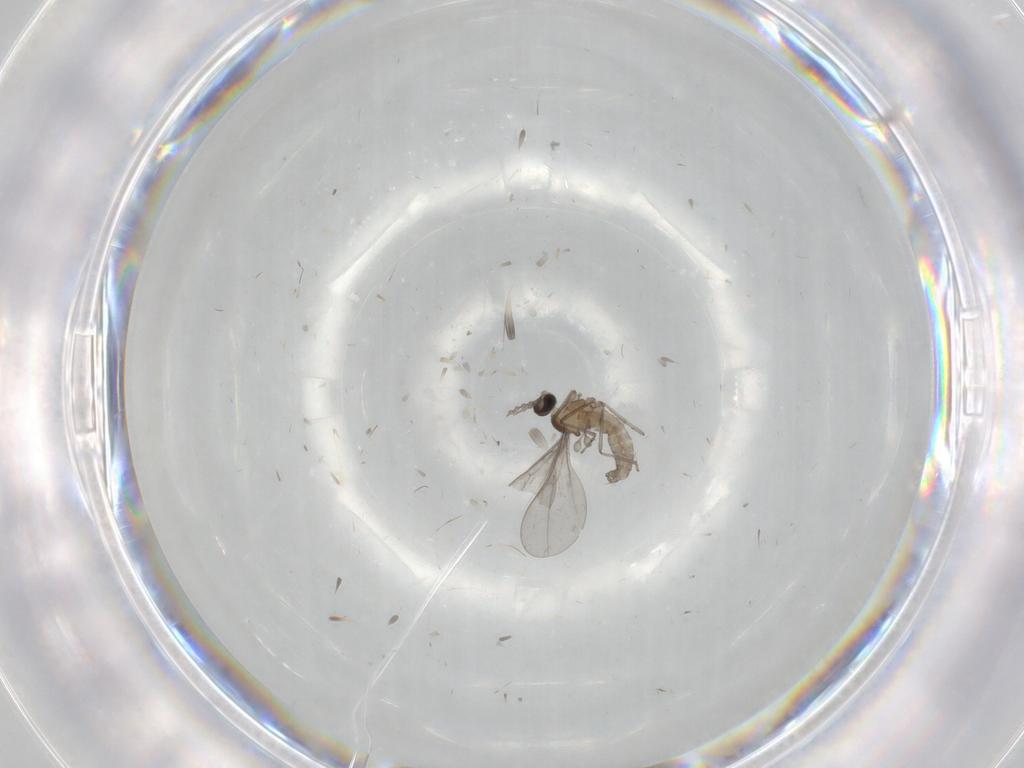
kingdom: Animalia
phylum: Arthropoda
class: Insecta
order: Diptera
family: Cecidomyiidae
